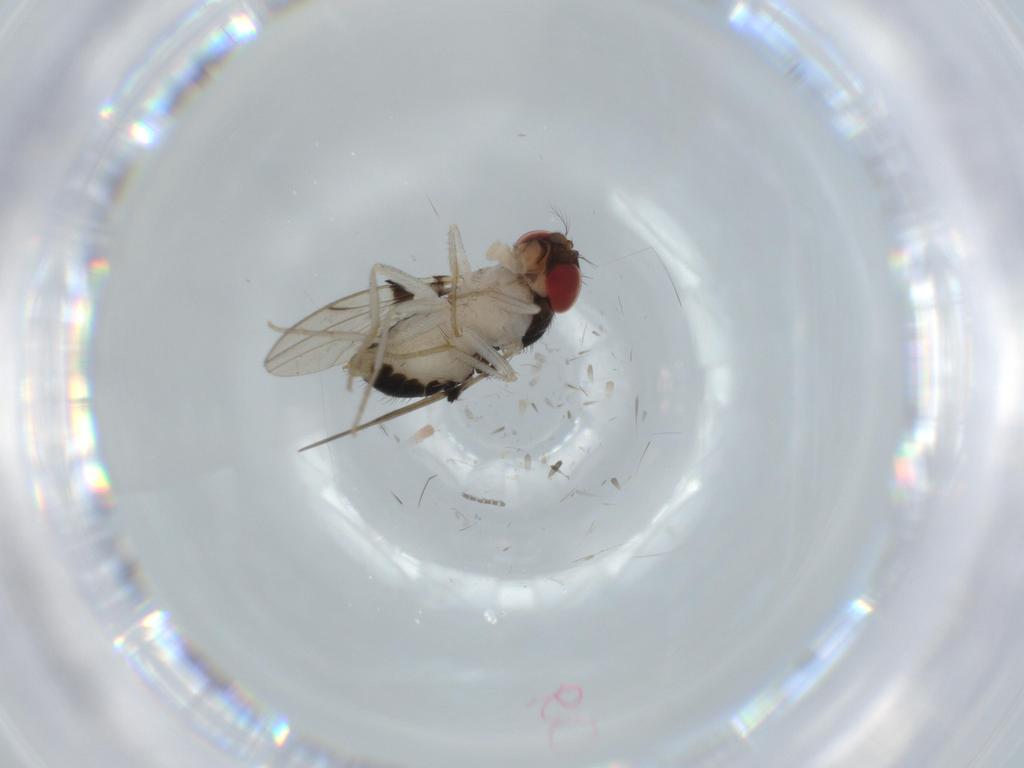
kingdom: Animalia
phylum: Arthropoda
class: Insecta
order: Diptera
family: Drosophilidae
